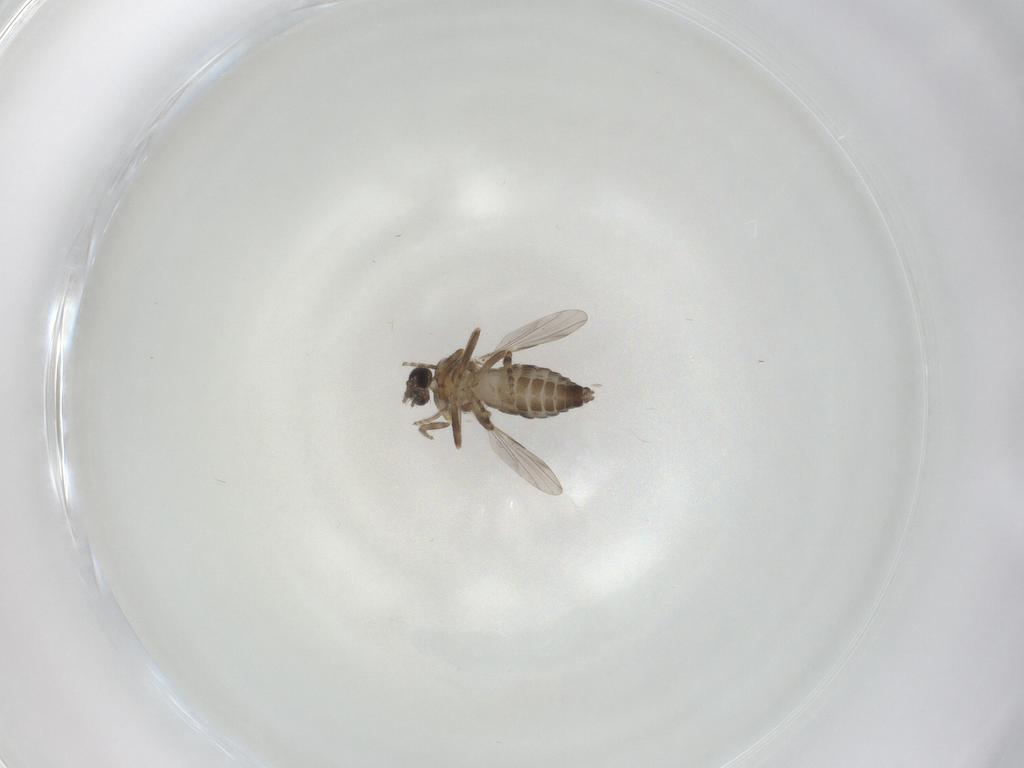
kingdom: Animalia
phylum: Arthropoda
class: Insecta
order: Diptera
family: Ceratopogonidae
